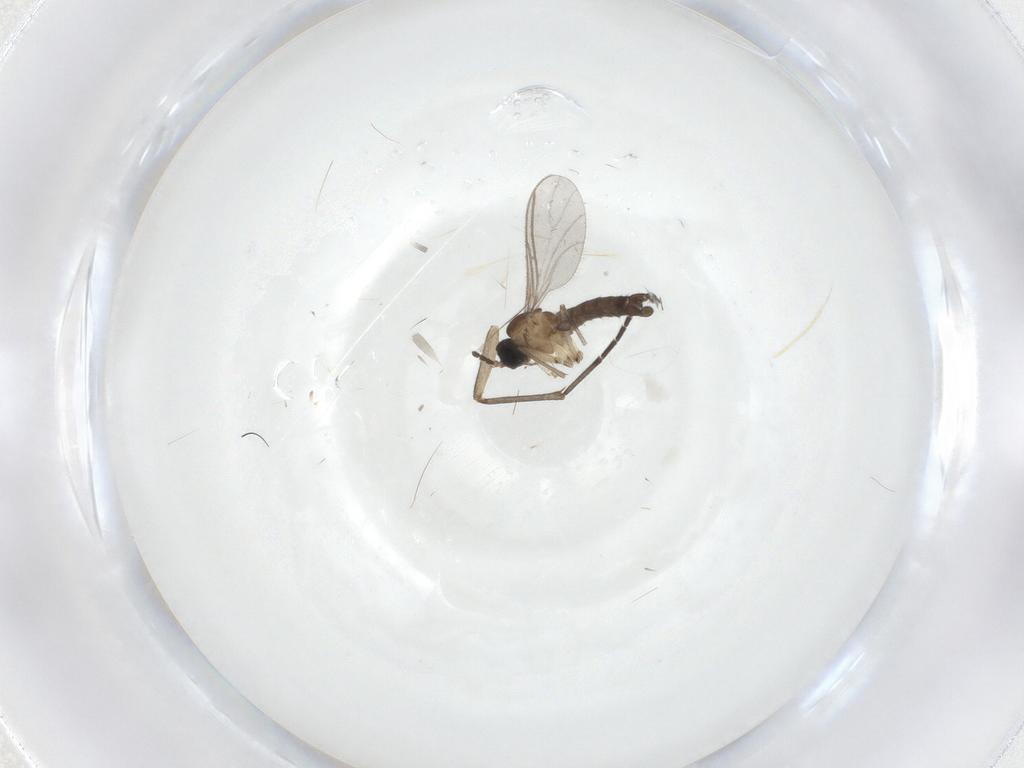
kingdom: Animalia
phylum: Arthropoda
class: Insecta
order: Diptera
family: Sciaridae
